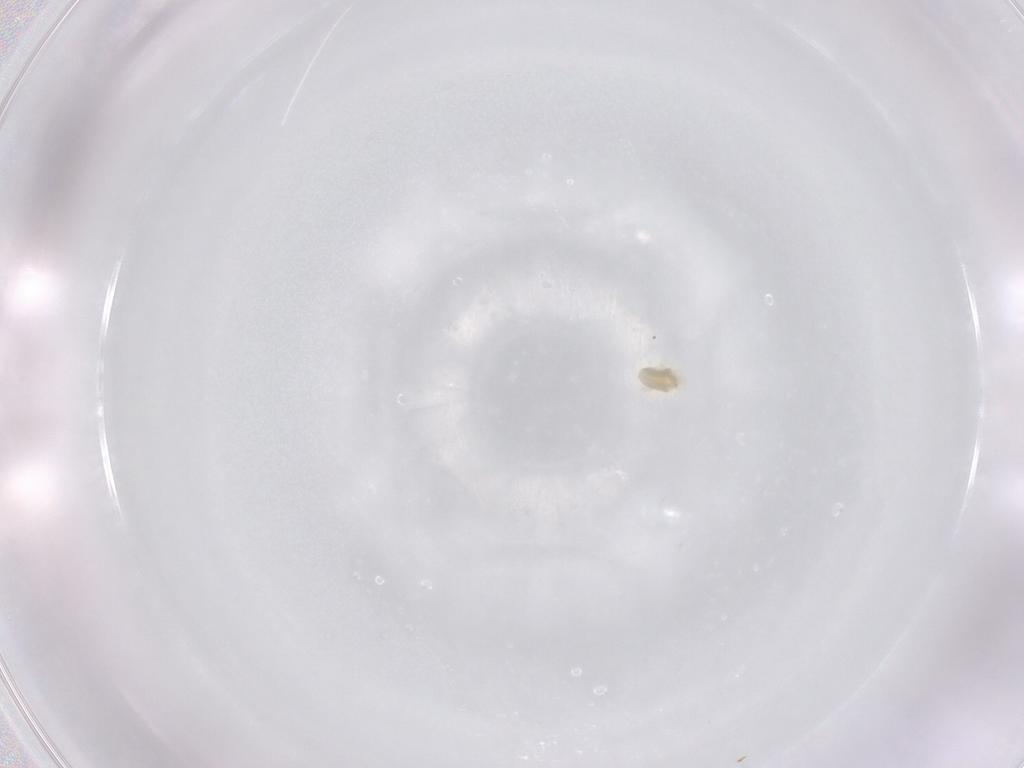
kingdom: Animalia
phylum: Arthropoda
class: Arachnida
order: Trombidiformes
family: Eupodidae
